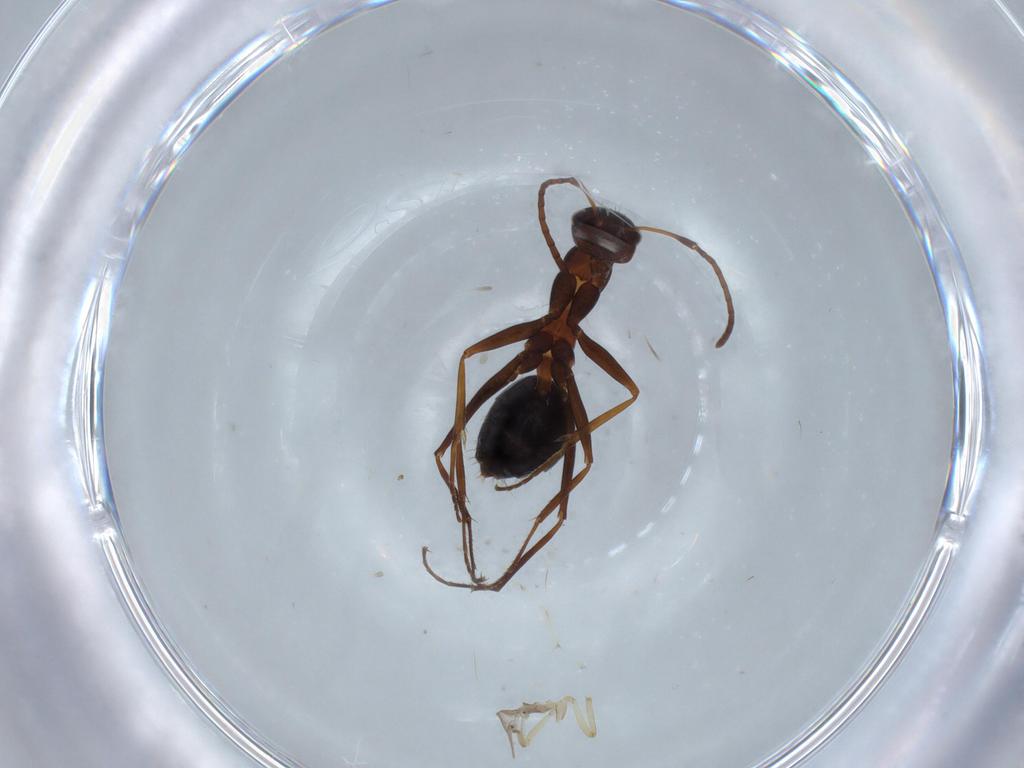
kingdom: Animalia
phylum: Arthropoda
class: Insecta
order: Hymenoptera
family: Formicidae
